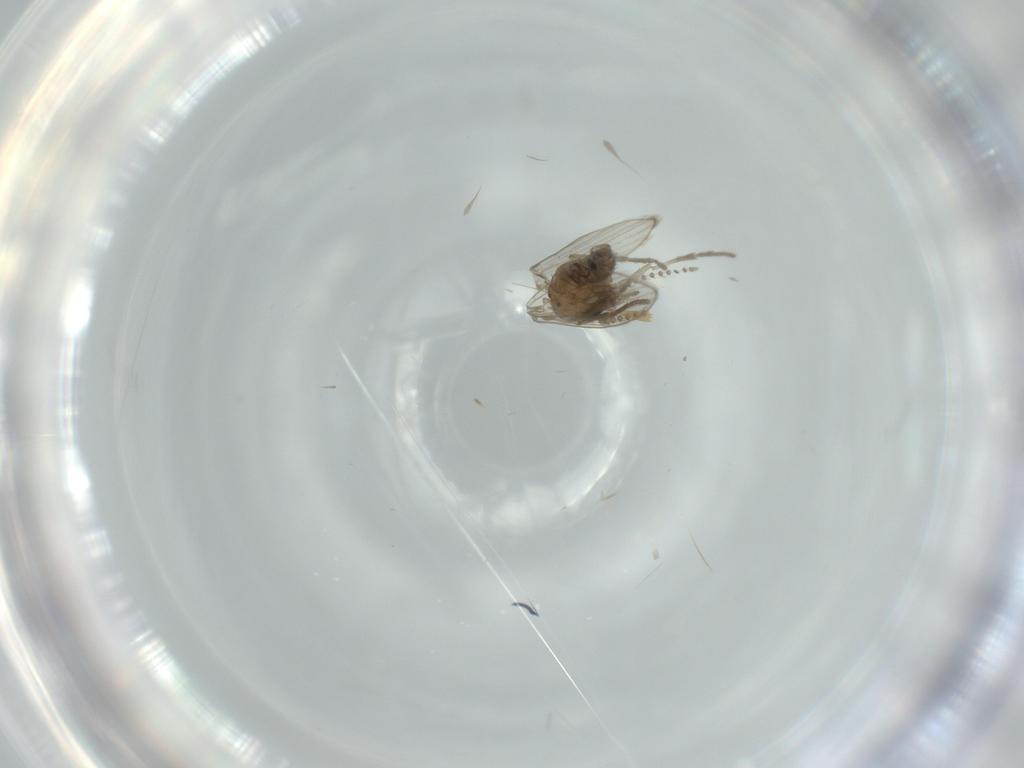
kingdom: Animalia
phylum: Arthropoda
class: Insecta
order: Diptera
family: Psychodidae
